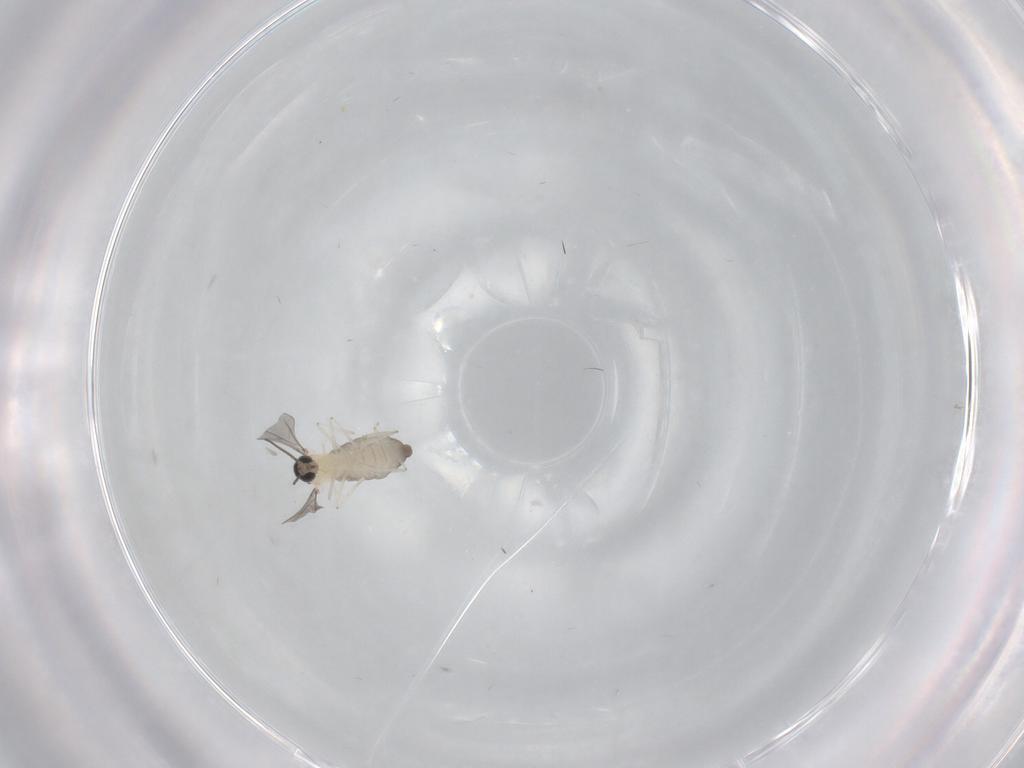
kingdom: Animalia
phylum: Arthropoda
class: Insecta
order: Diptera
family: Cecidomyiidae
